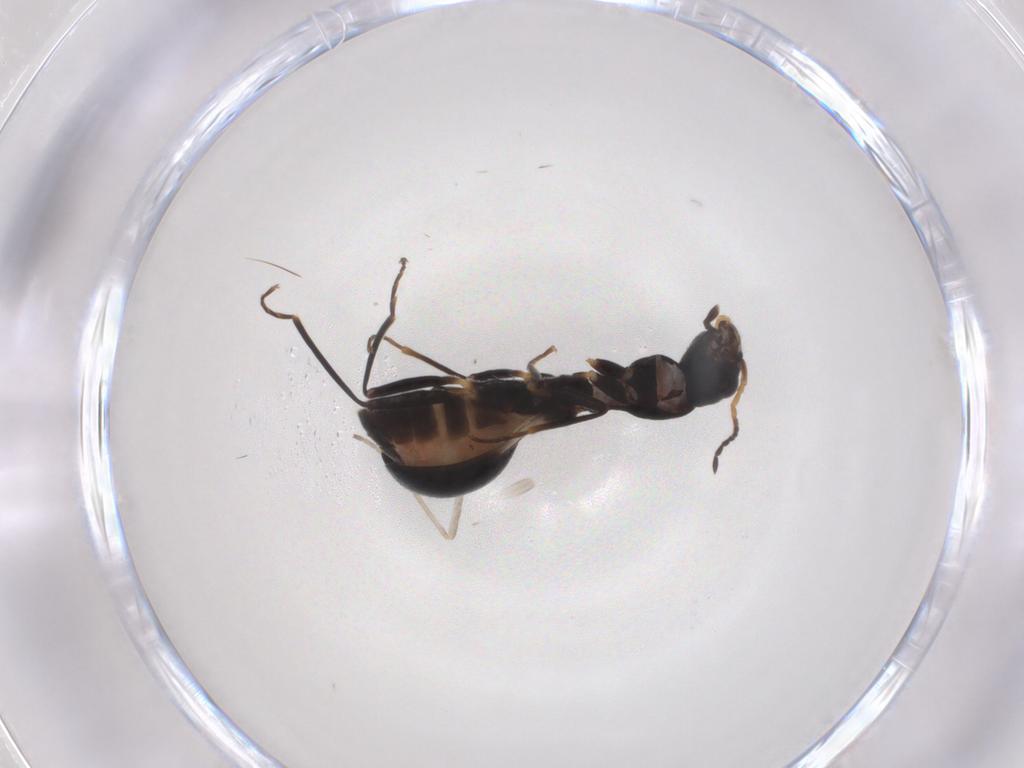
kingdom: Animalia
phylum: Arthropoda
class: Insecta
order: Coleoptera
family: Melyridae
